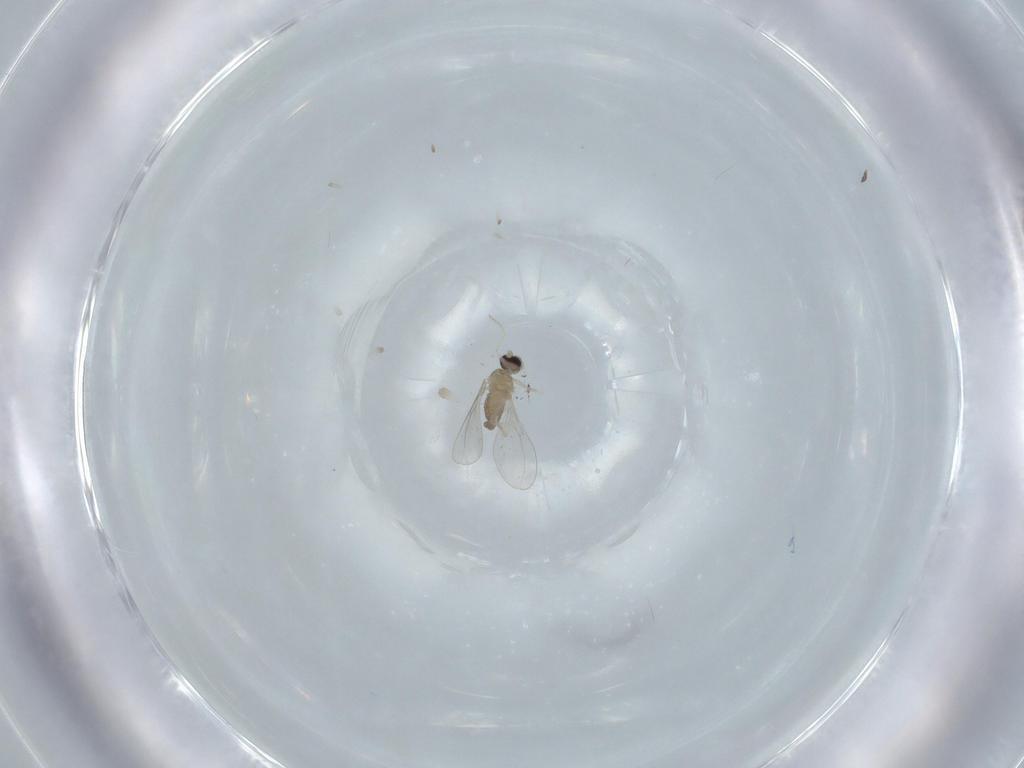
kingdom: Animalia
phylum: Arthropoda
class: Insecta
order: Diptera
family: Cecidomyiidae
